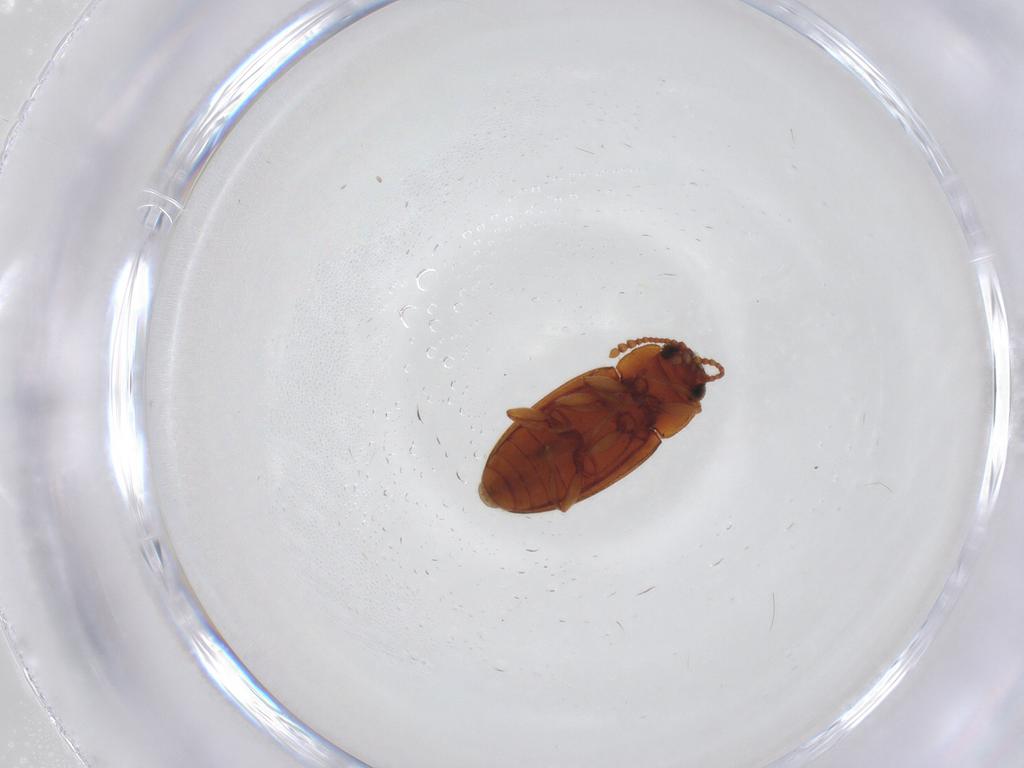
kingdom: Animalia
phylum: Arthropoda
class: Insecta
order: Coleoptera
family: Erotylidae
